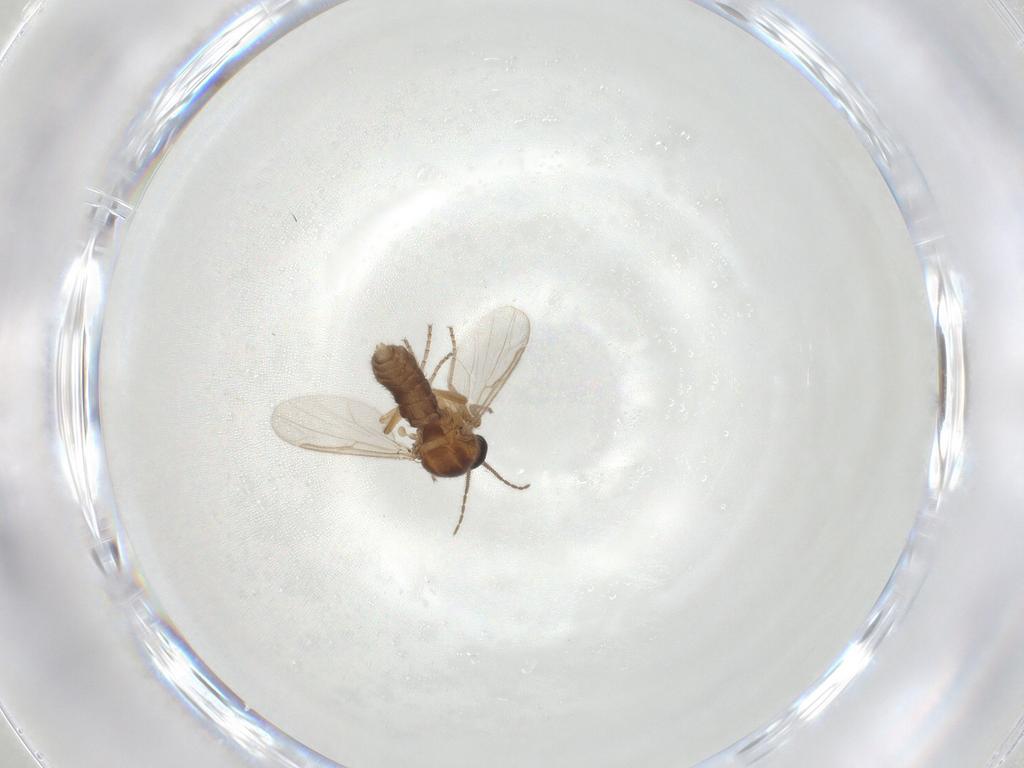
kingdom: Animalia
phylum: Arthropoda
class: Insecta
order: Diptera
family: Ceratopogonidae
